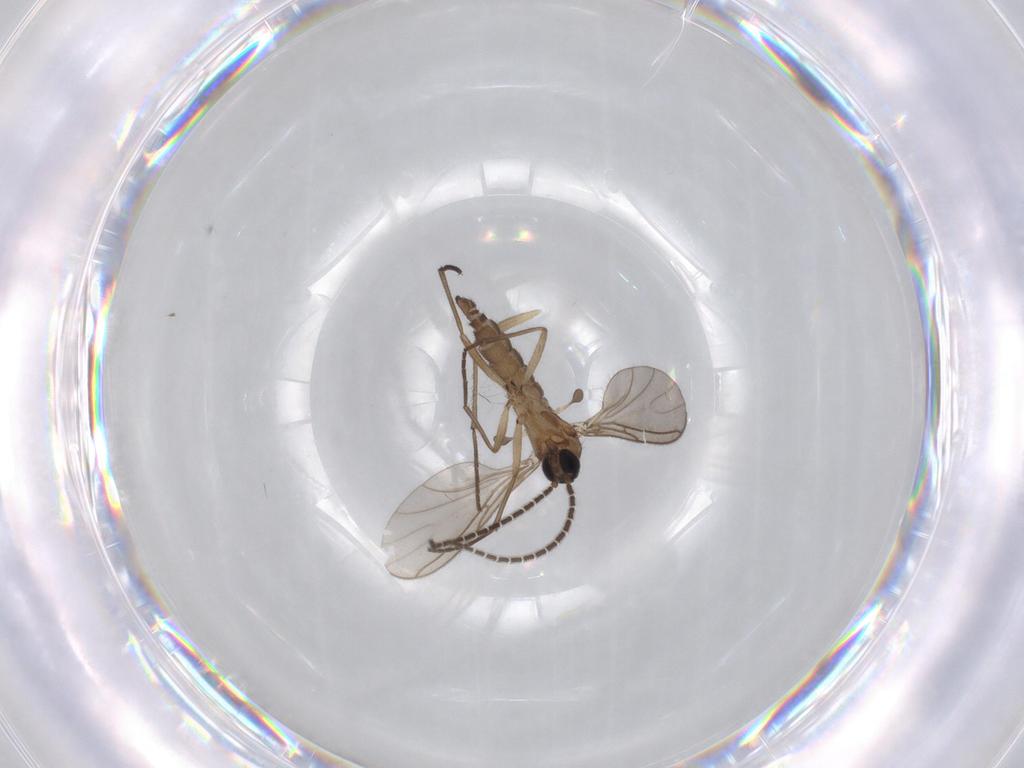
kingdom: Animalia
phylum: Arthropoda
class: Insecta
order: Diptera
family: Sciaridae
